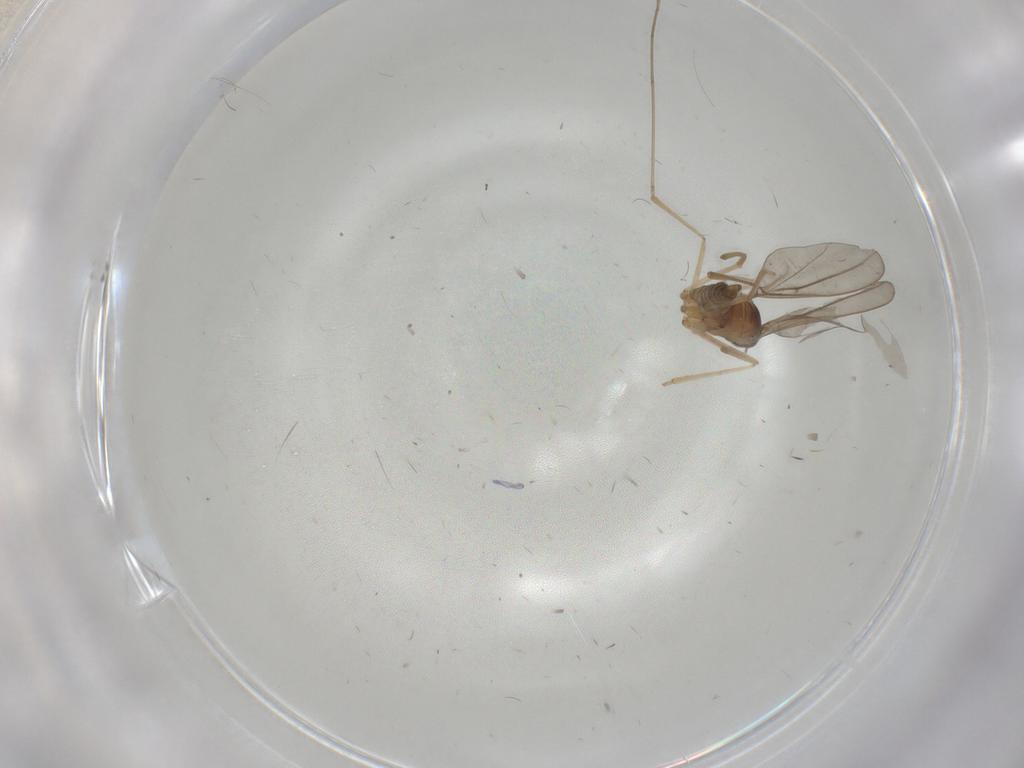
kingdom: Animalia
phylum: Arthropoda
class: Insecta
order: Diptera
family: Cecidomyiidae
